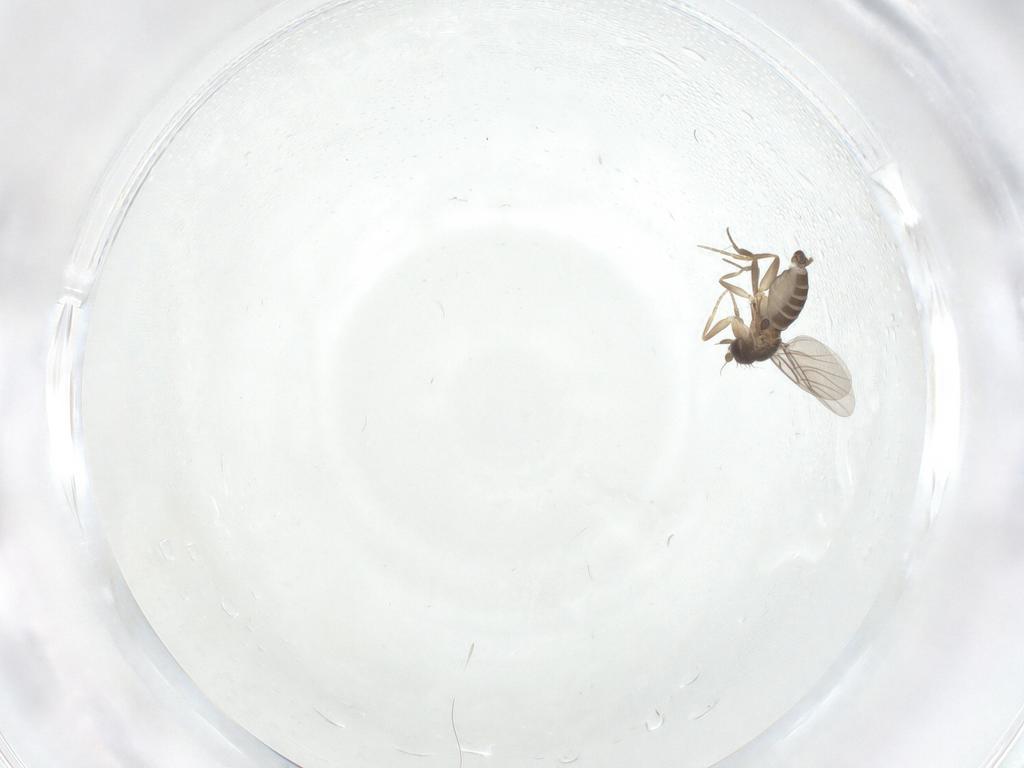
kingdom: Animalia
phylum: Arthropoda
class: Insecta
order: Diptera
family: Phoridae
